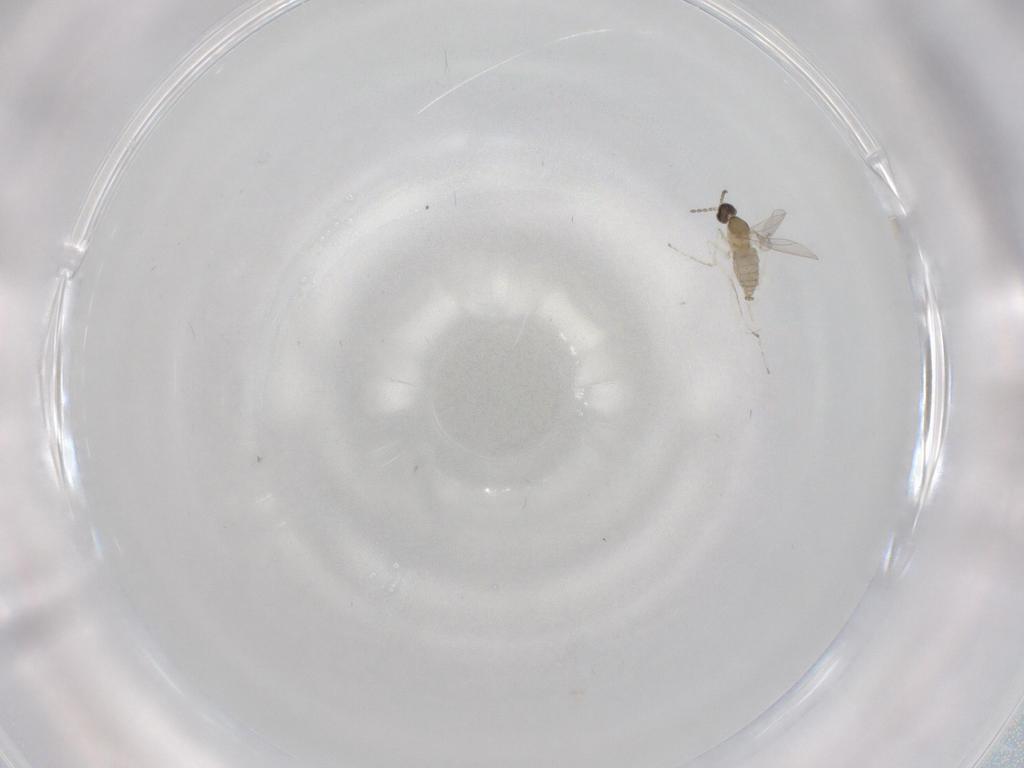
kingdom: Animalia
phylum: Arthropoda
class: Insecta
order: Diptera
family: Cecidomyiidae
